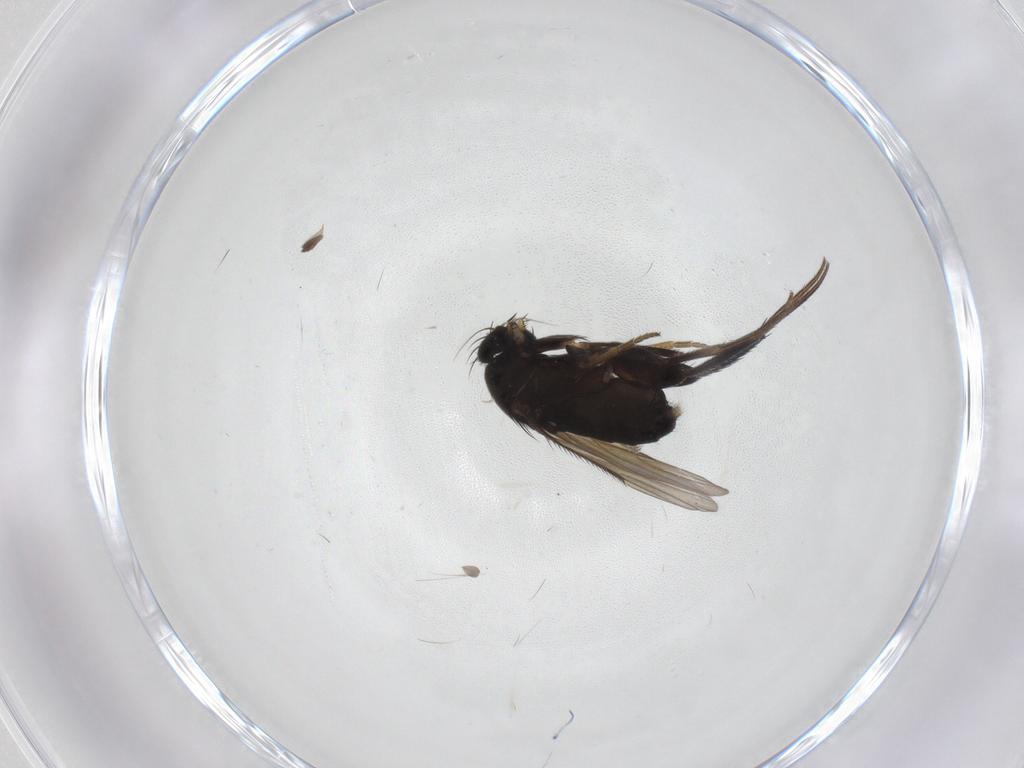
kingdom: Animalia
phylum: Arthropoda
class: Insecta
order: Diptera
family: Phoridae
